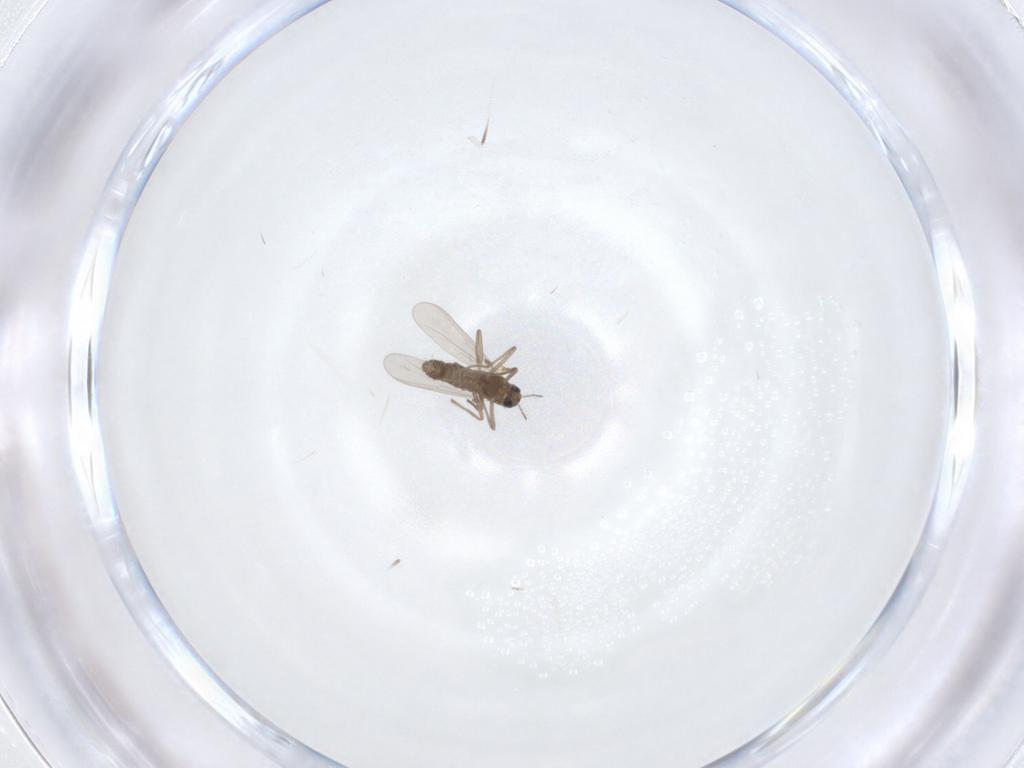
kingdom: Animalia
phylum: Arthropoda
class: Insecta
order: Diptera
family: Chironomidae
